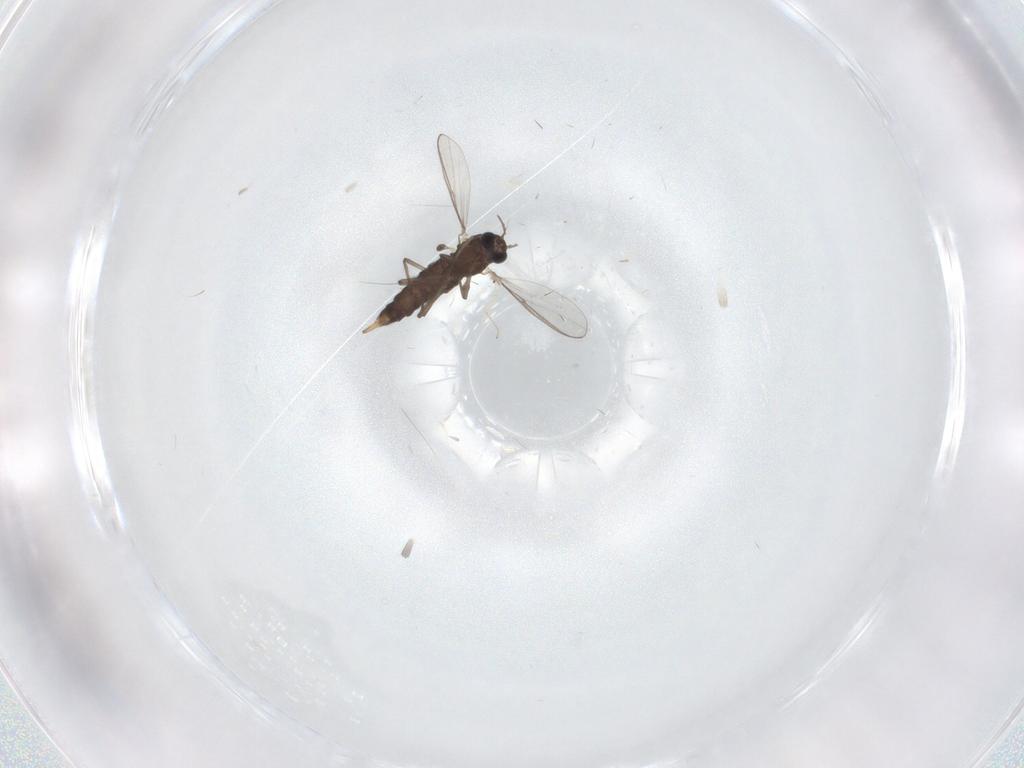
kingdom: Animalia
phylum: Arthropoda
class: Insecta
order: Diptera
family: Chironomidae
